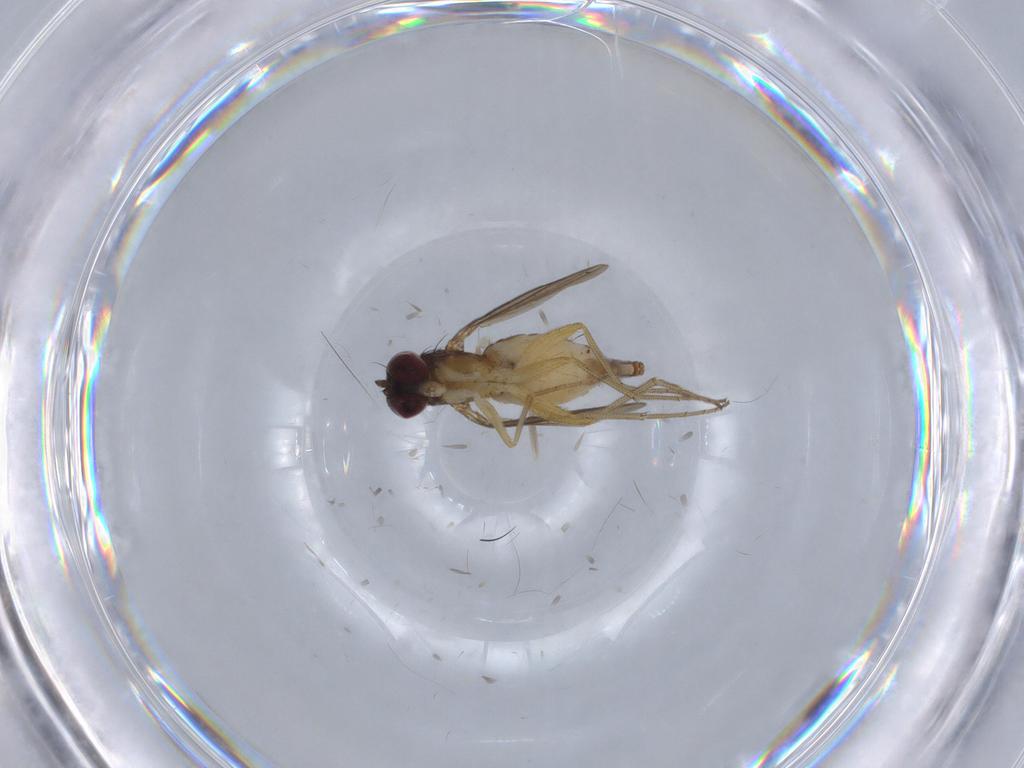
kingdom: Animalia
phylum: Arthropoda
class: Insecta
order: Diptera
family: Dolichopodidae
